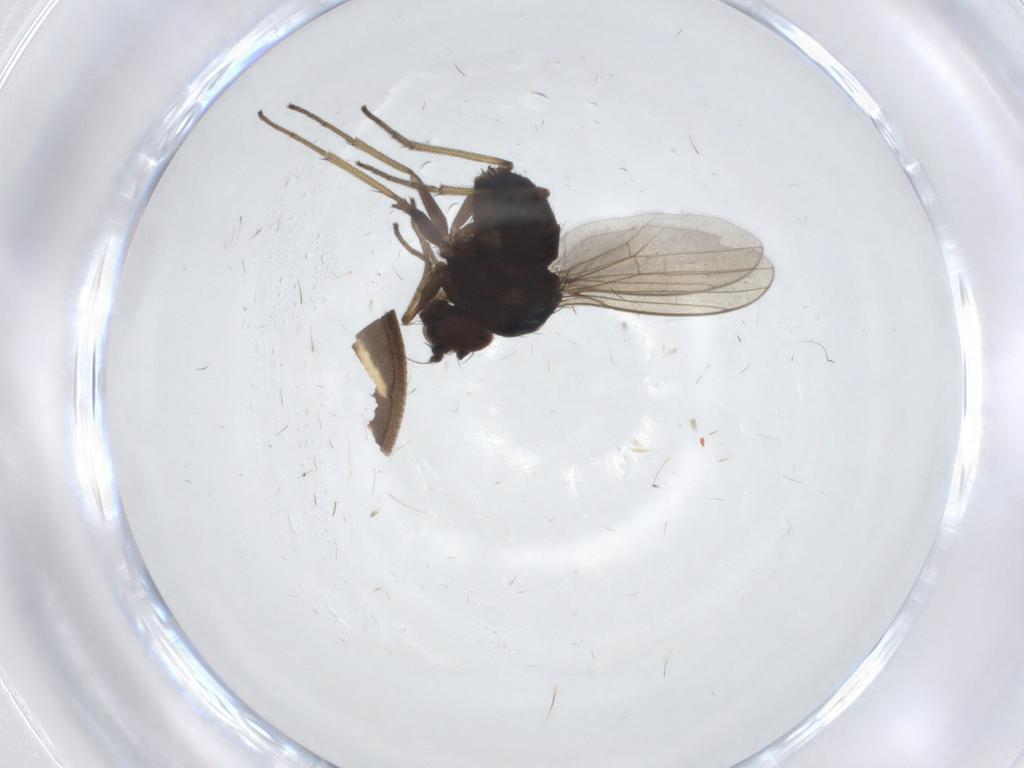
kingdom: Animalia
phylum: Arthropoda
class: Insecta
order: Diptera
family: Dolichopodidae
